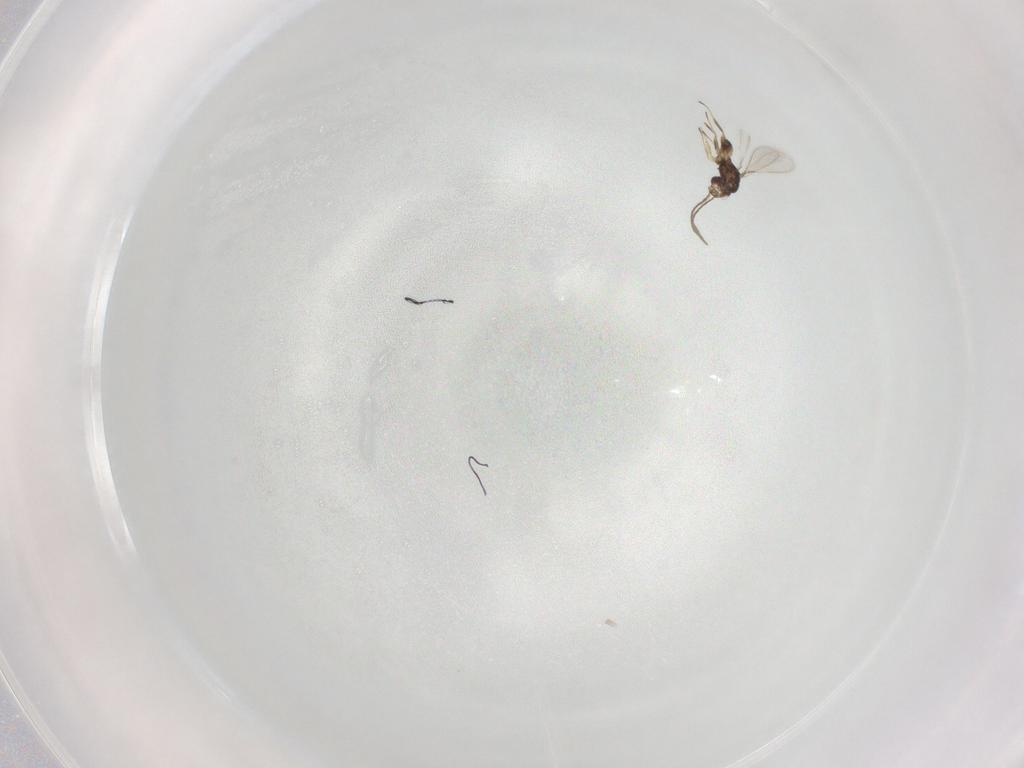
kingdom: Animalia
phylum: Arthropoda
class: Insecta
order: Hymenoptera
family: Mymaridae
